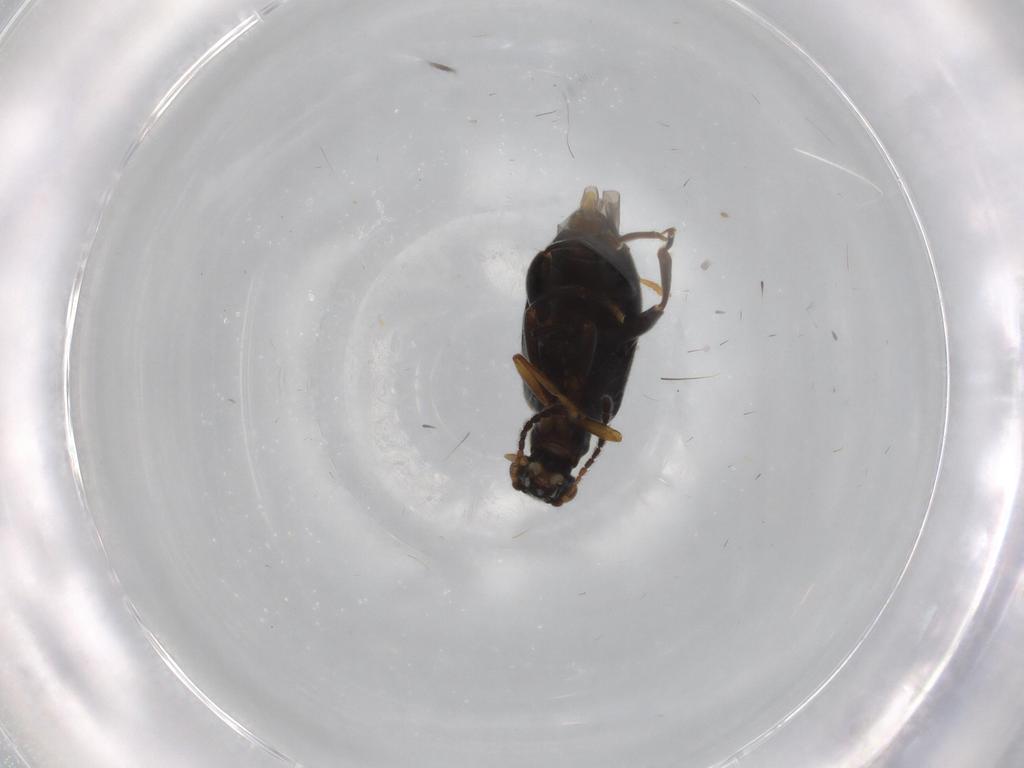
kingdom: Animalia
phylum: Arthropoda
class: Insecta
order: Coleoptera
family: Aderidae
